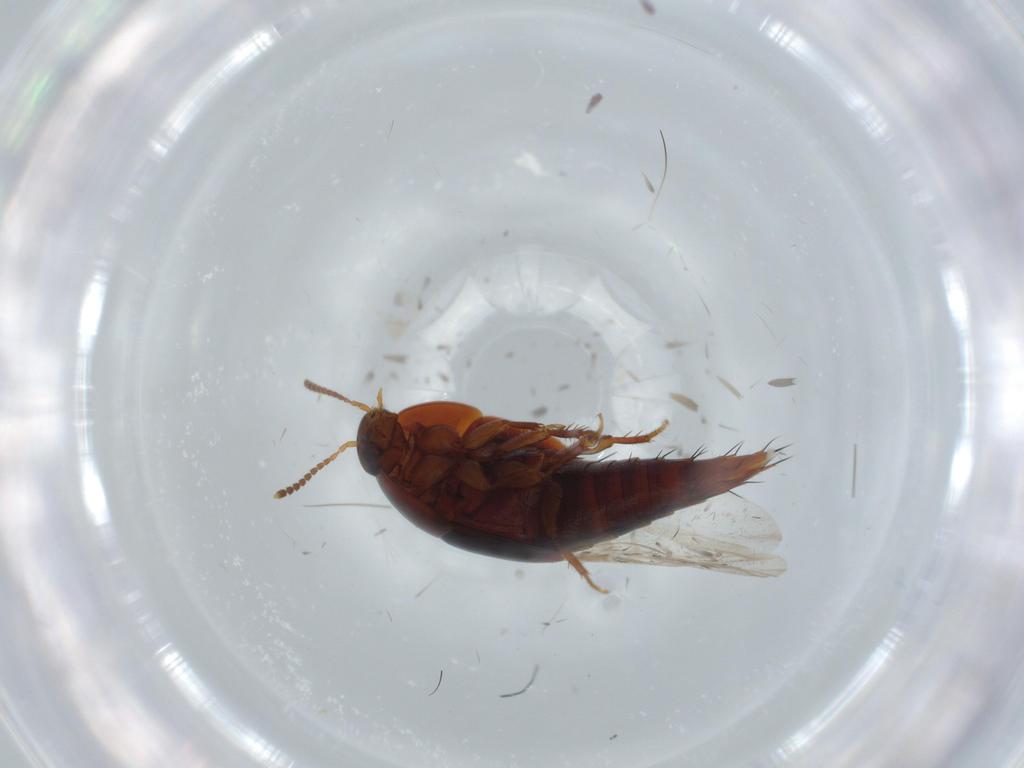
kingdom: Animalia
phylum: Arthropoda
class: Insecta
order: Coleoptera
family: Staphylinidae
